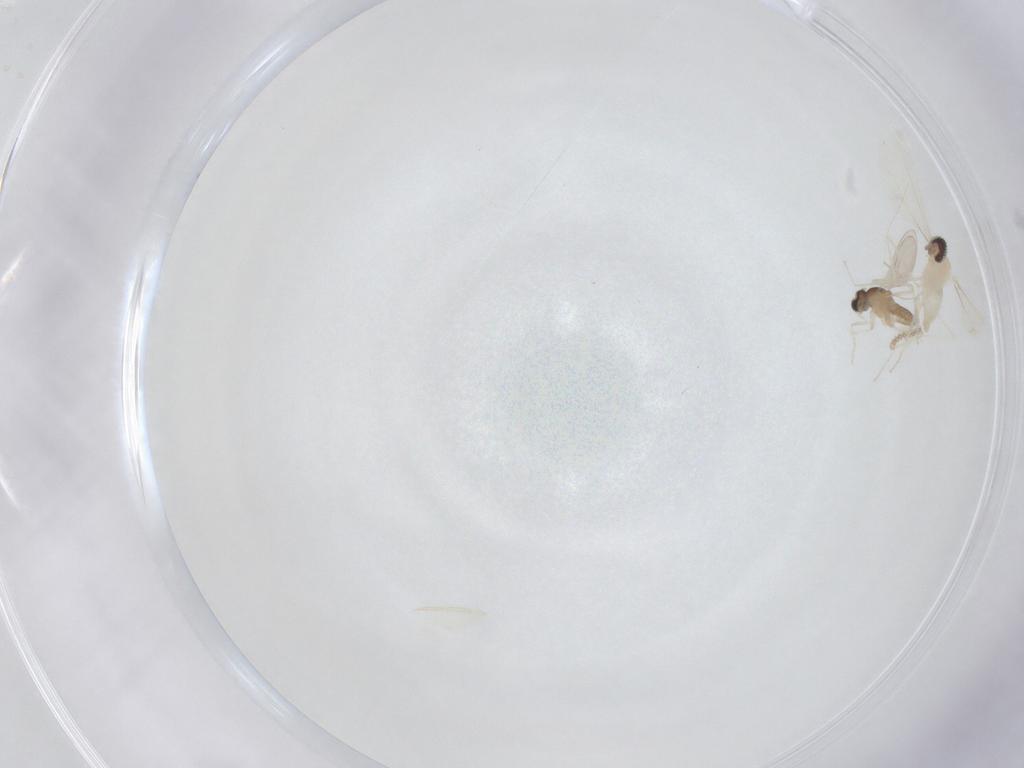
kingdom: Animalia
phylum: Arthropoda
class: Insecta
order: Diptera
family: Cecidomyiidae
